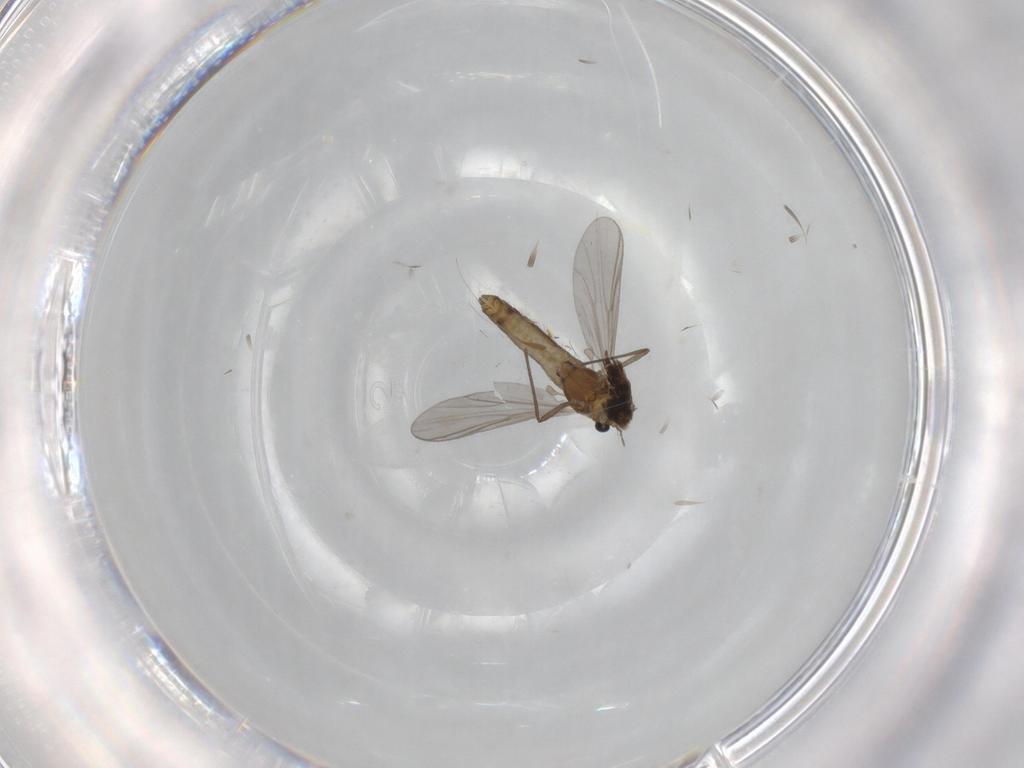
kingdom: Animalia
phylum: Arthropoda
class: Insecta
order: Diptera
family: Chironomidae
